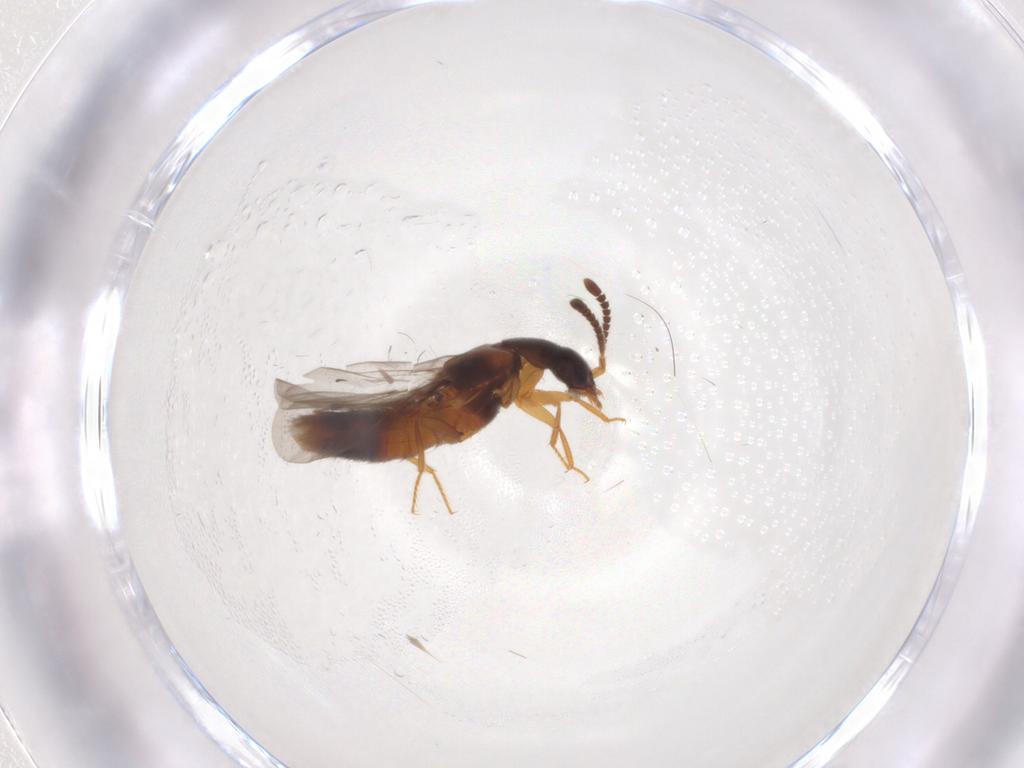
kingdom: Animalia
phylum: Arthropoda
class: Insecta
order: Coleoptera
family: Staphylinidae
